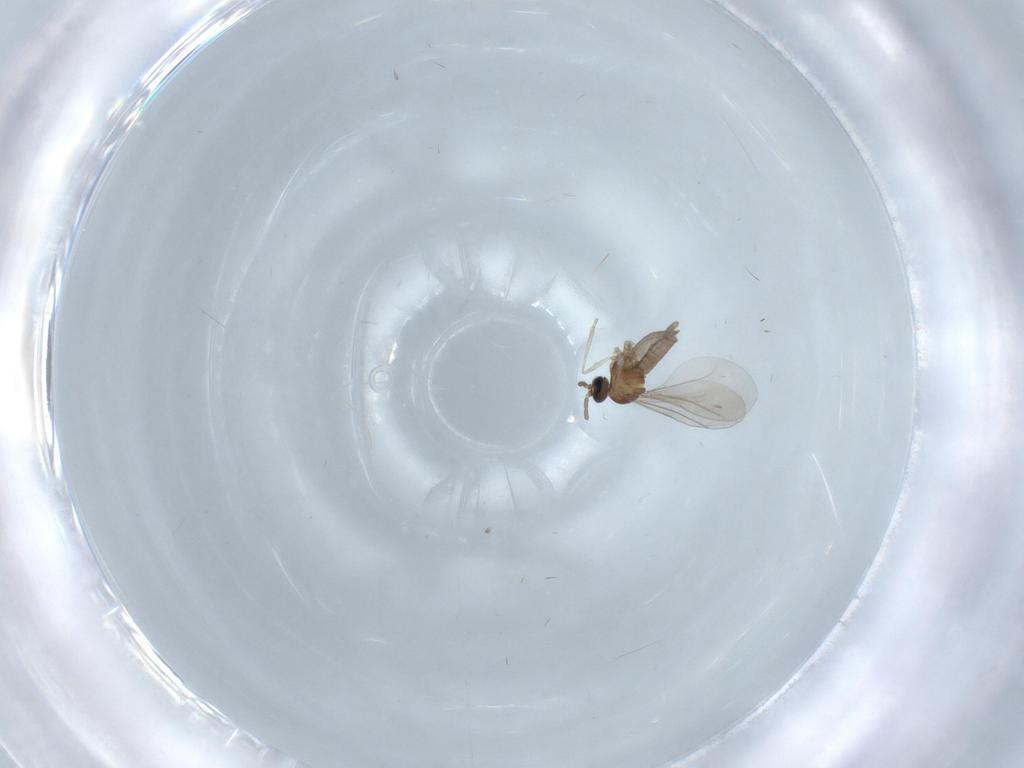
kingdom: Animalia
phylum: Arthropoda
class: Insecta
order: Diptera
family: Cecidomyiidae
